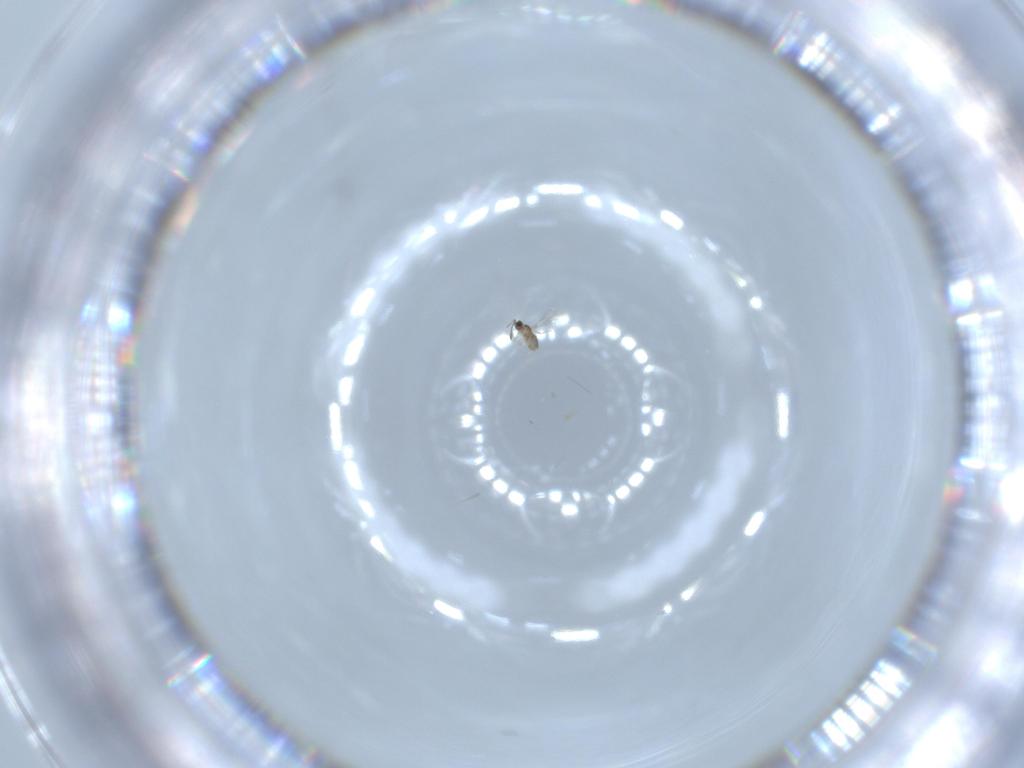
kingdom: Animalia
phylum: Arthropoda
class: Insecta
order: Hymenoptera
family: Mymaridae
